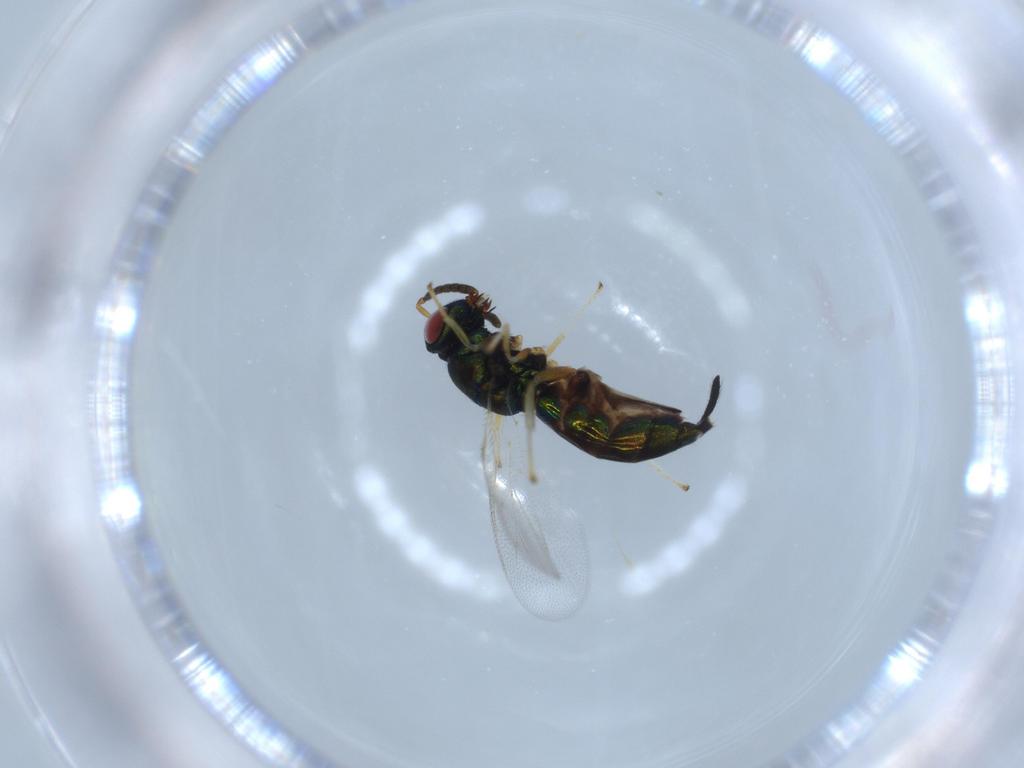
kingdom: Animalia
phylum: Arthropoda
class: Insecta
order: Hymenoptera
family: Pteromalidae
